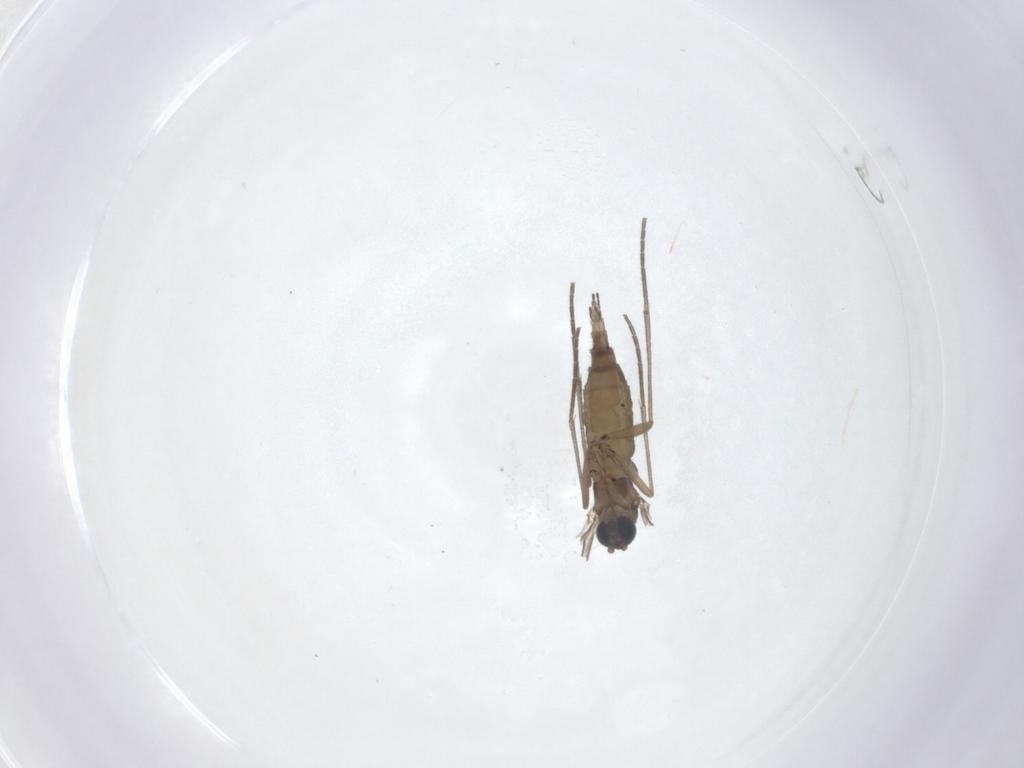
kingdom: Animalia
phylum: Arthropoda
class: Insecta
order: Diptera
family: Sciaridae
